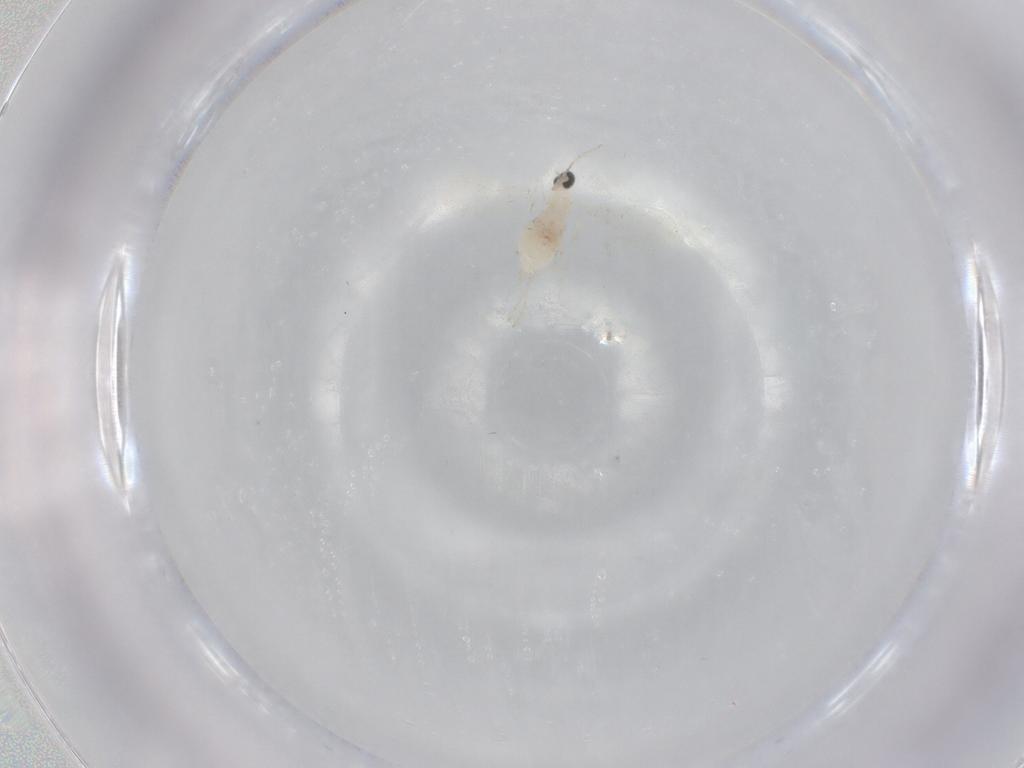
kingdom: Animalia
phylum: Arthropoda
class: Insecta
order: Diptera
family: Cecidomyiidae
